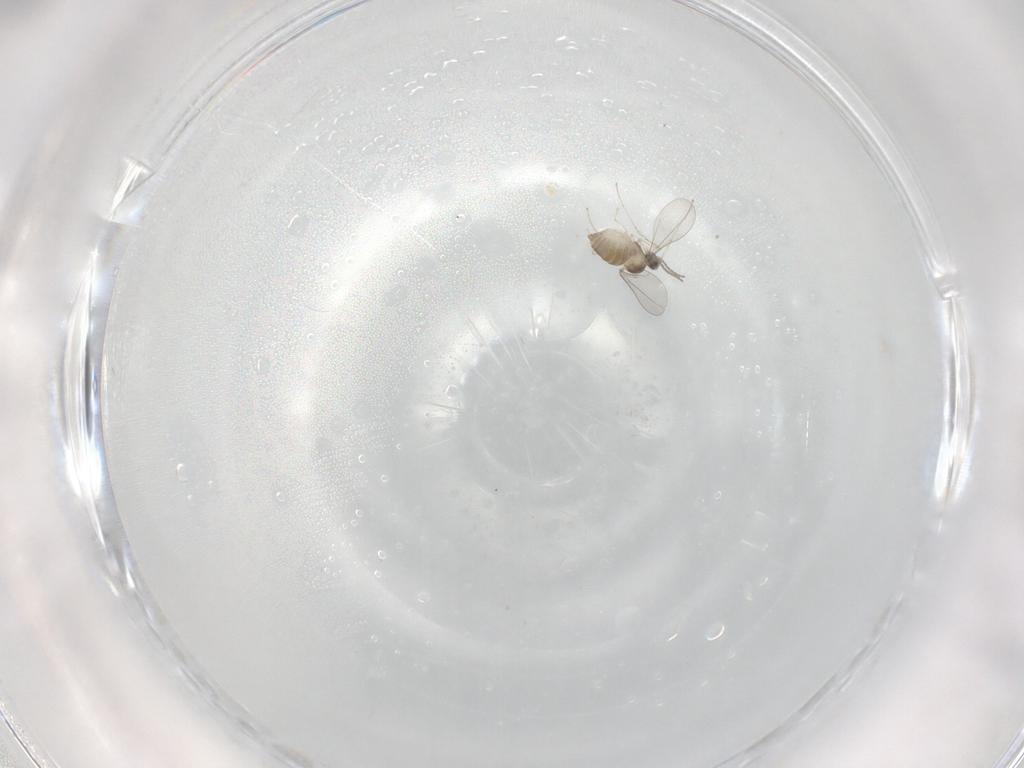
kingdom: Animalia
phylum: Arthropoda
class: Insecta
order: Diptera
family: Cecidomyiidae
